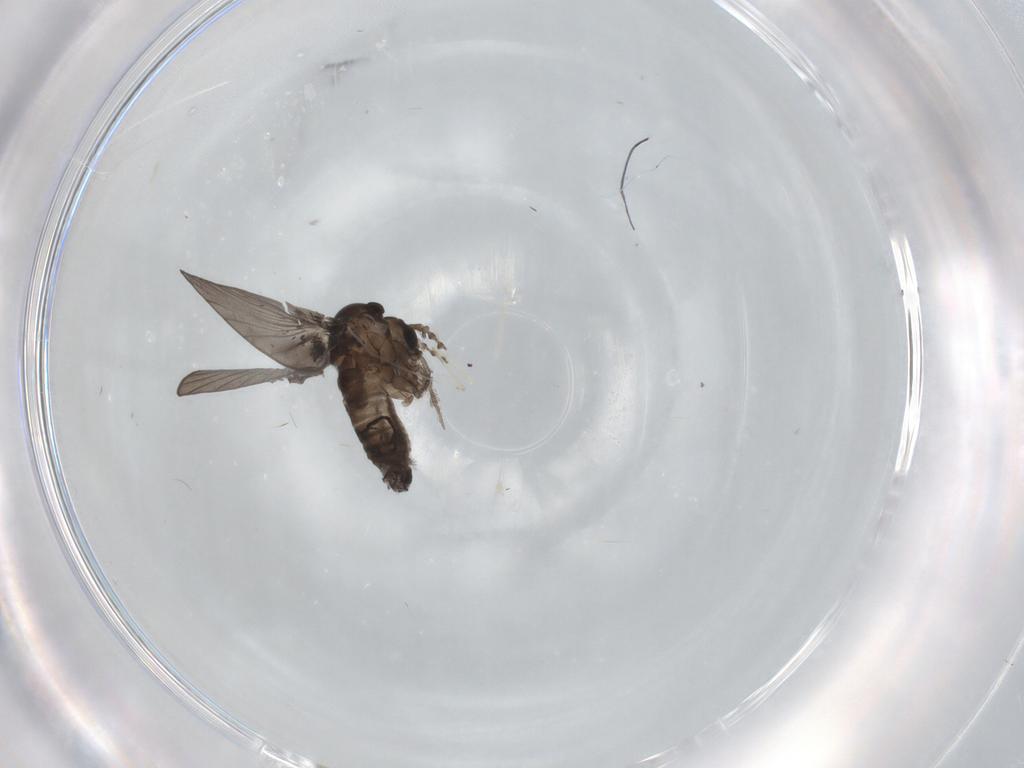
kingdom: Animalia
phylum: Arthropoda
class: Insecta
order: Diptera
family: Psychodidae
